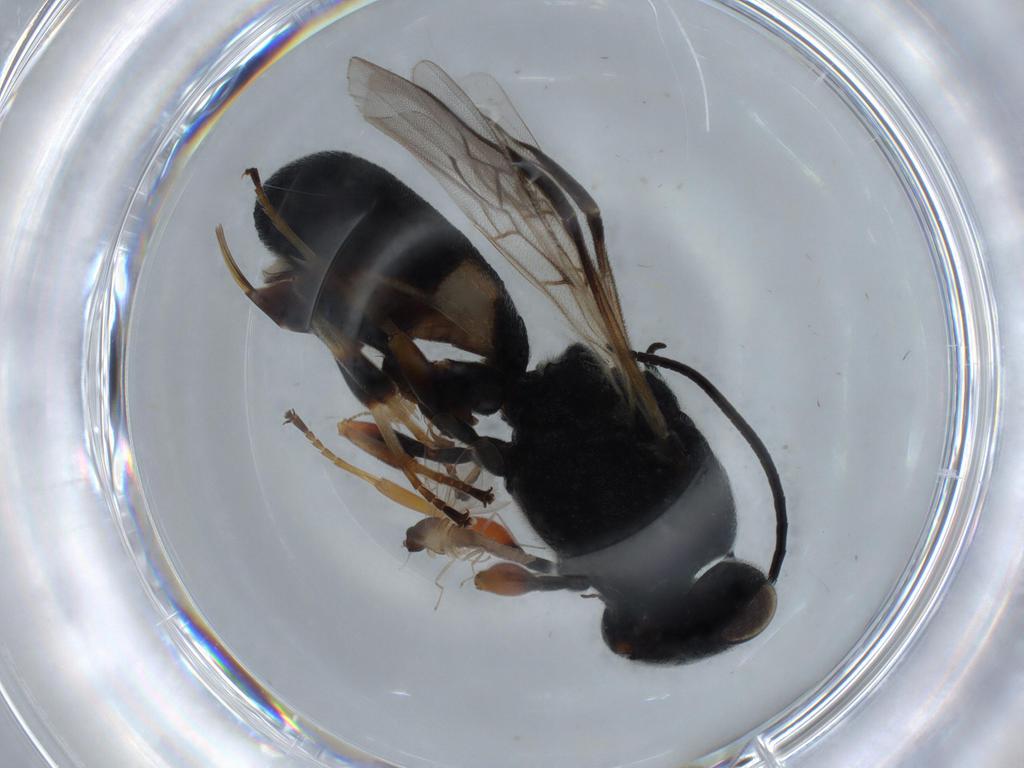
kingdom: Animalia
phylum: Arthropoda
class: Insecta
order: Hymenoptera
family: Braconidae
